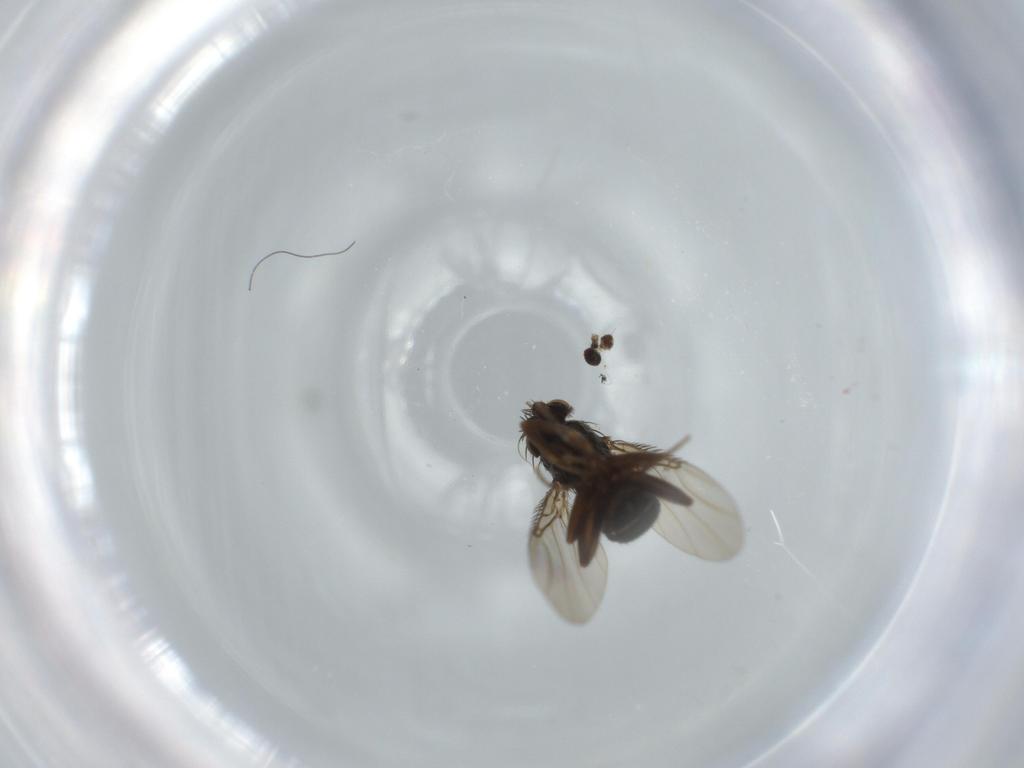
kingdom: Animalia
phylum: Arthropoda
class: Insecta
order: Diptera
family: Phoridae
